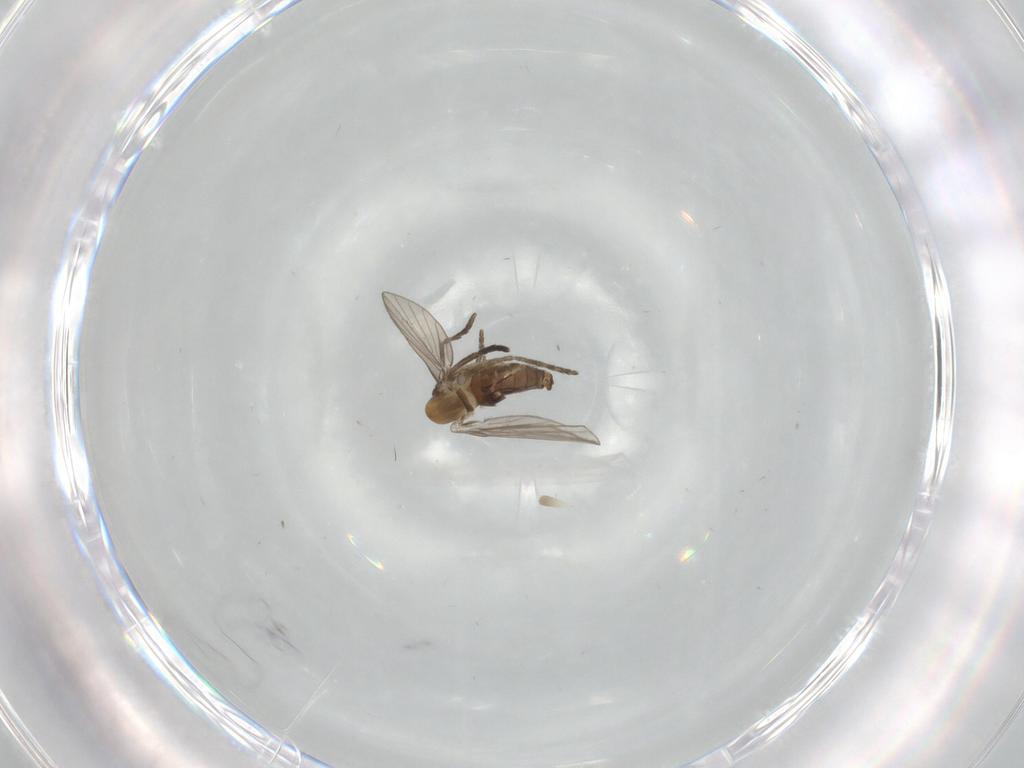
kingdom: Animalia
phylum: Arthropoda
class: Insecta
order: Diptera
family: Psychodidae
